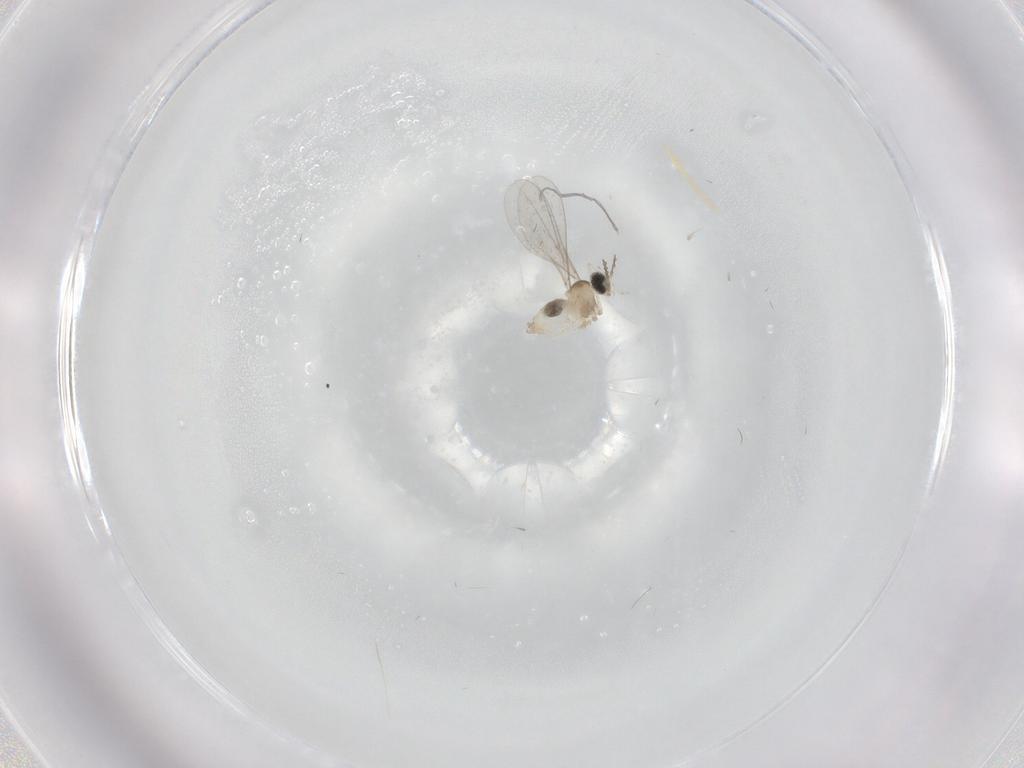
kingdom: Animalia
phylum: Arthropoda
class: Insecta
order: Diptera
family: Cecidomyiidae
